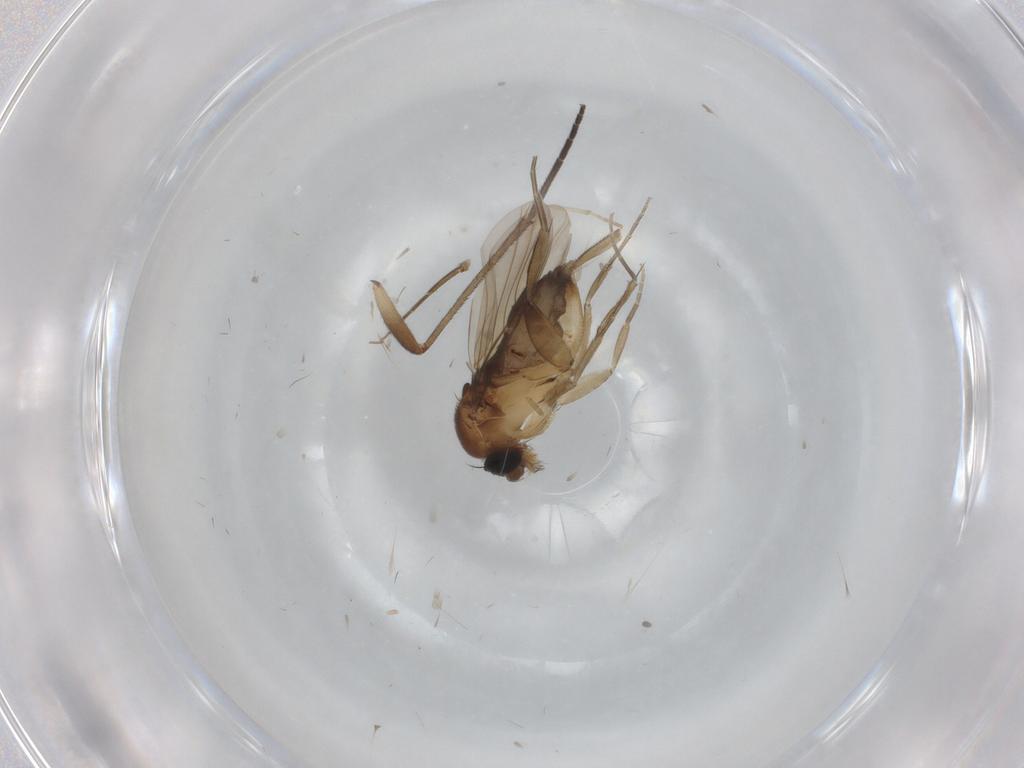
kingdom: Animalia
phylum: Arthropoda
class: Insecta
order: Diptera
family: Phoridae
